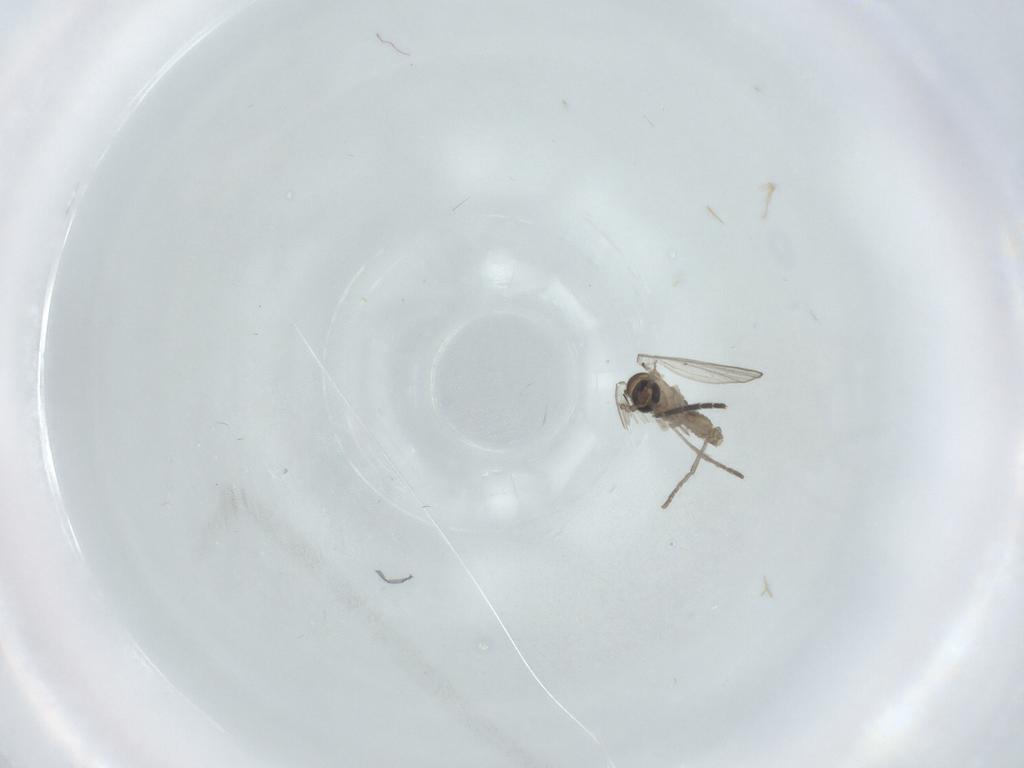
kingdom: Animalia
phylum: Arthropoda
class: Insecta
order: Diptera
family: Psychodidae
